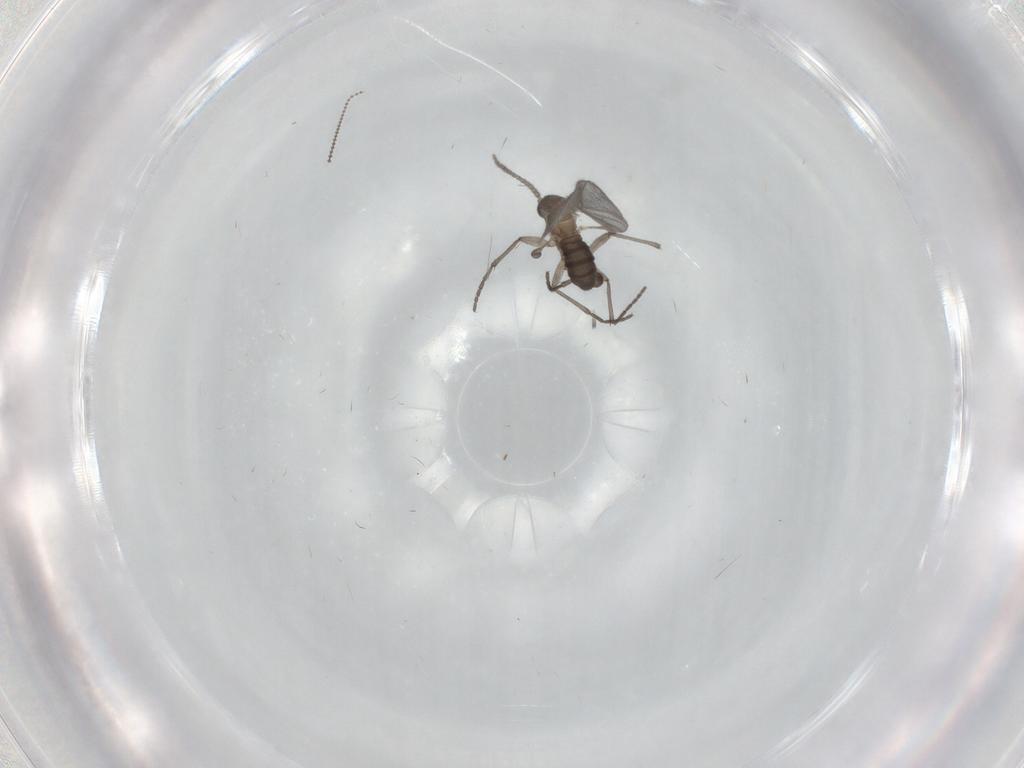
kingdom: Animalia
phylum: Arthropoda
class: Insecta
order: Diptera
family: Sciaridae
